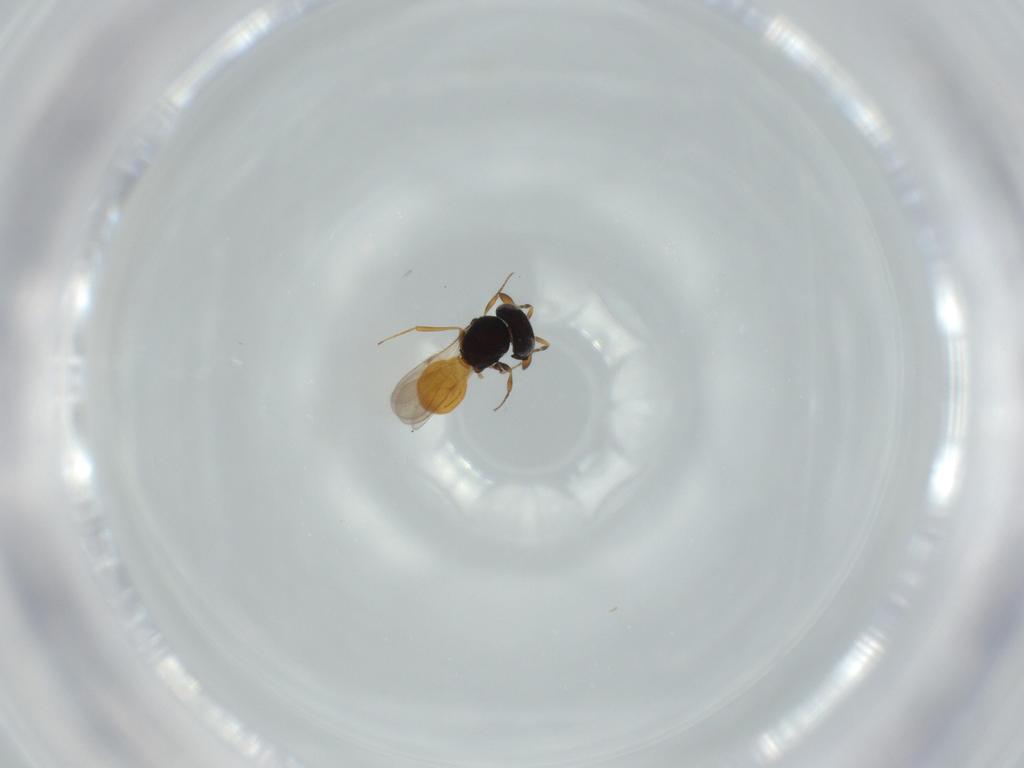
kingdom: Animalia
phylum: Arthropoda
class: Insecta
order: Hymenoptera
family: Scelionidae
